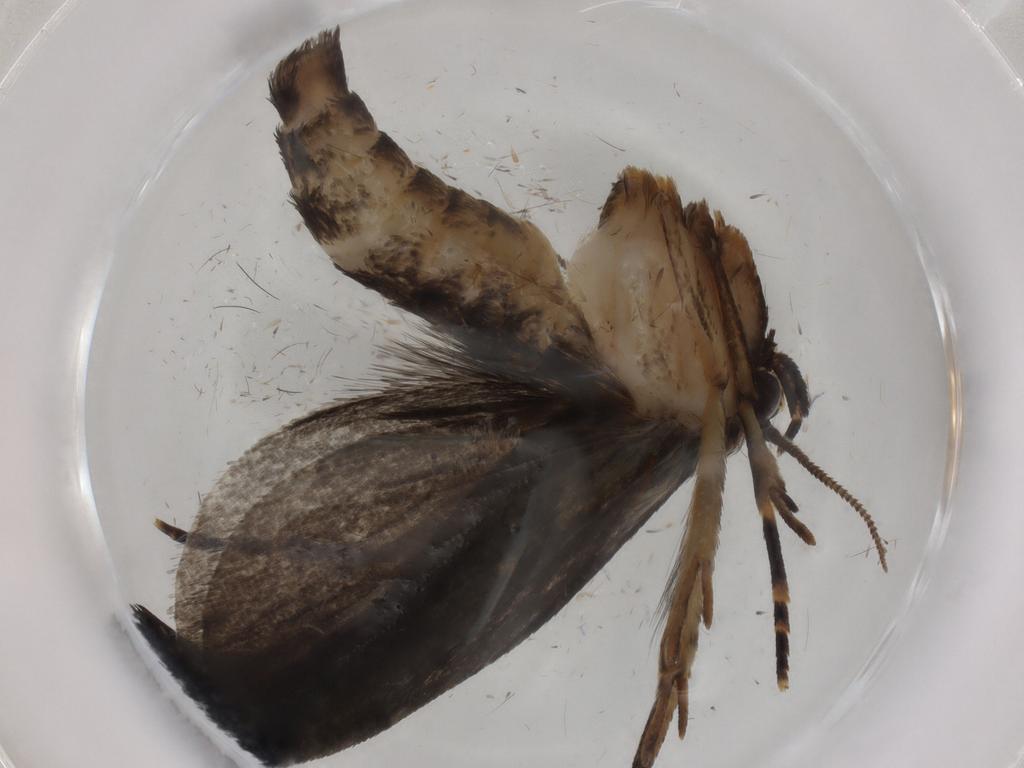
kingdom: Animalia
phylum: Arthropoda
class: Insecta
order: Lepidoptera
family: Tineidae
